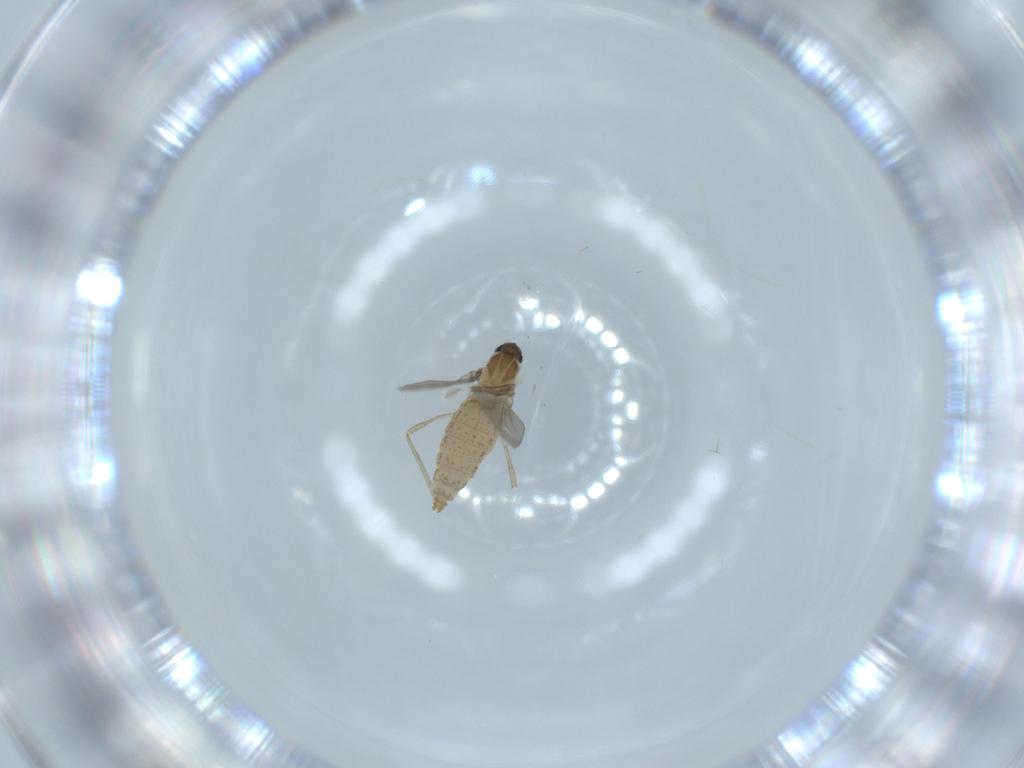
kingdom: Animalia
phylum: Arthropoda
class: Insecta
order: Diptera
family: Cecidomyiidae
